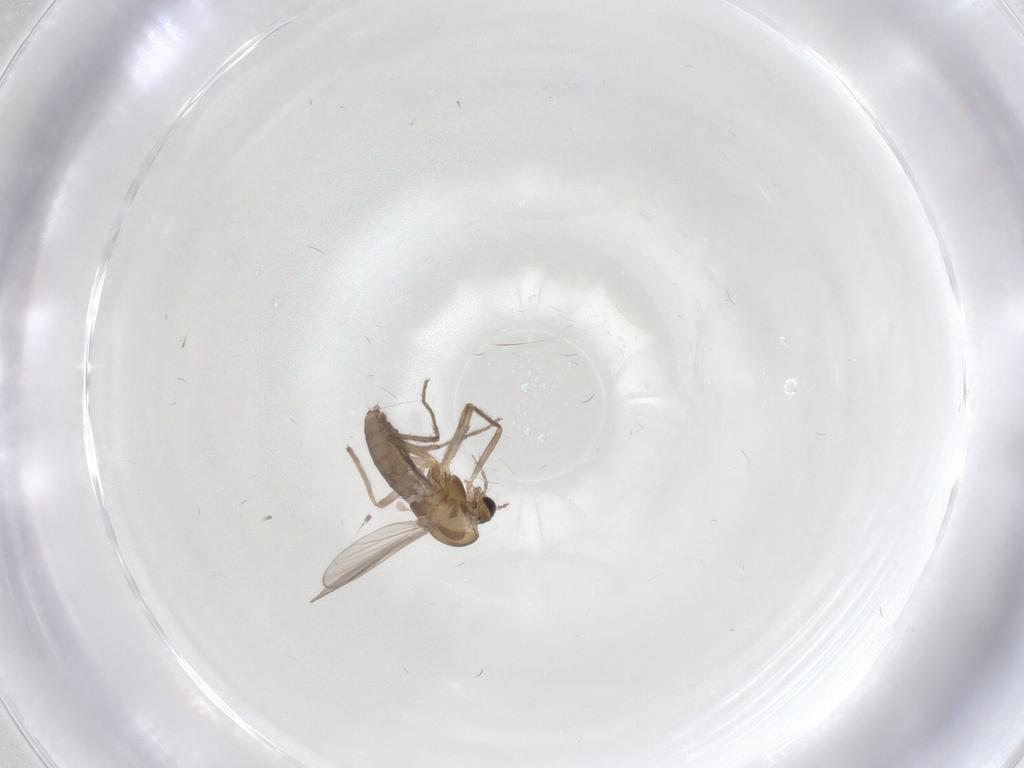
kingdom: Animalia
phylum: Arthropoda
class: Insecta
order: Diptera
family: Chironomidae
